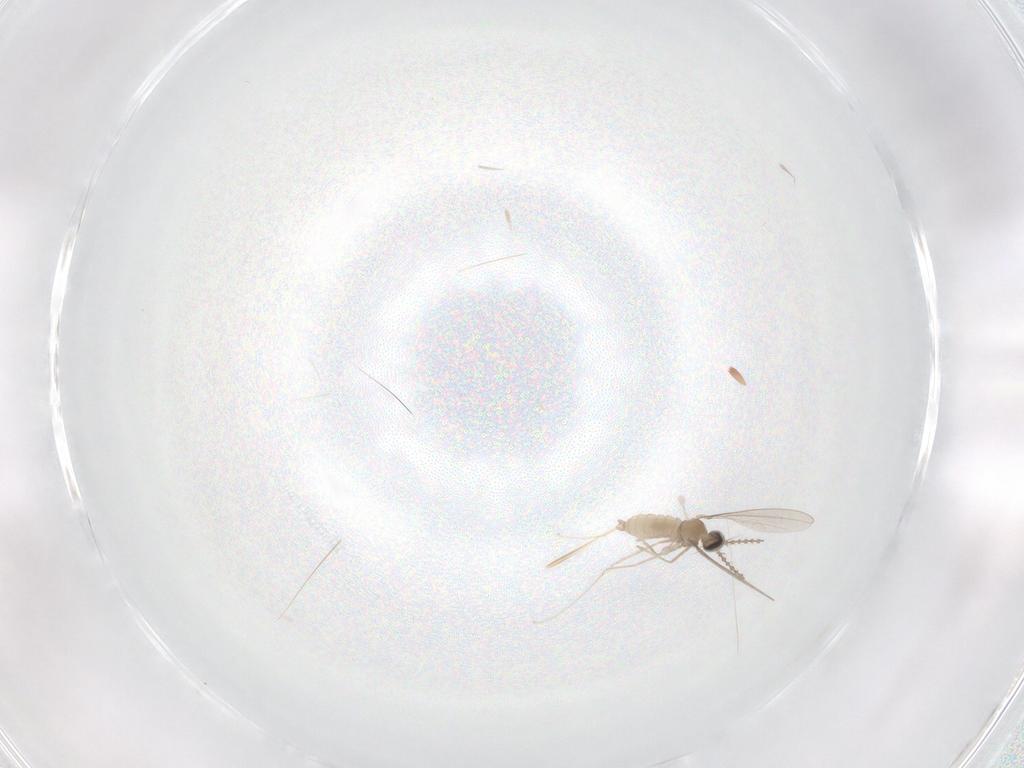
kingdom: Animalia
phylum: Arthropoda
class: Insecta
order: Diptera
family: Cecidomyiidae
